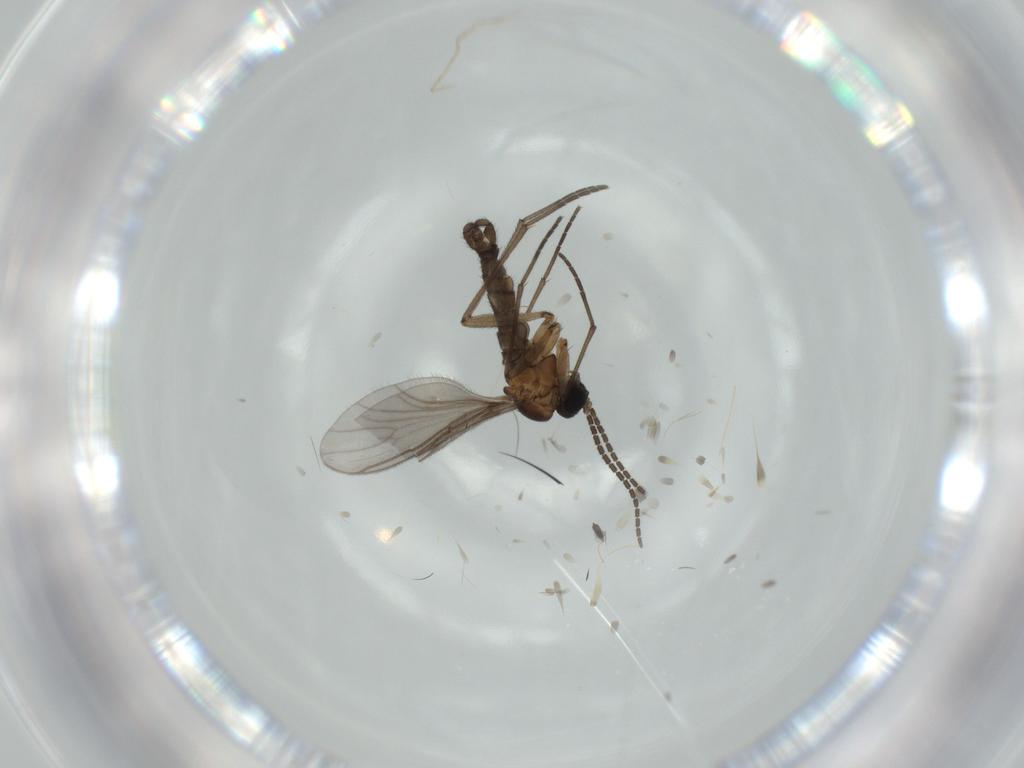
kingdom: Animalia
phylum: Arthropoda
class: Insecta
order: Diptera
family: Sciaridae
